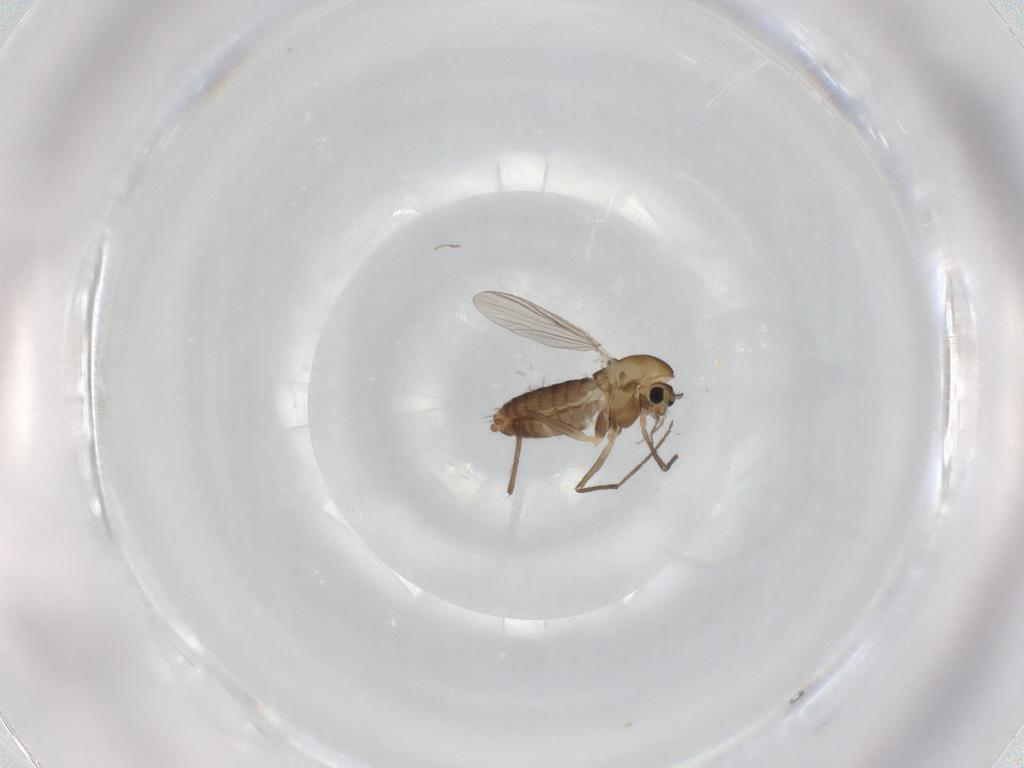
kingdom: Animalia
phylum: Arthropoda
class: Insecta
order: Diptera
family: Chironomidae
